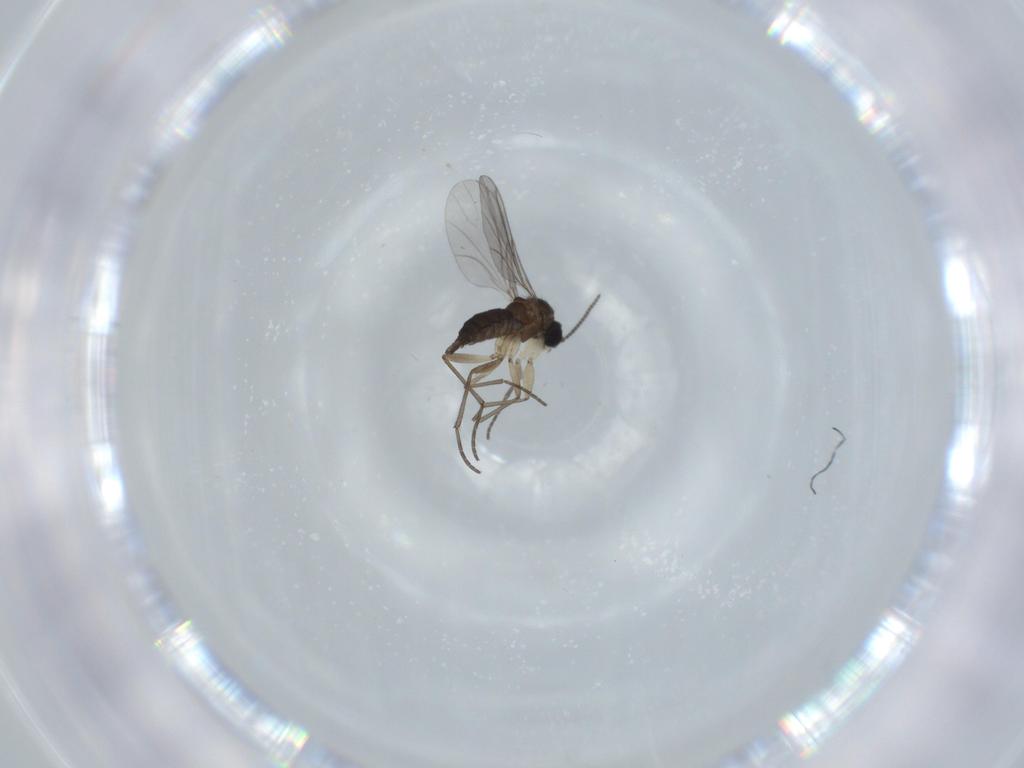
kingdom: Animalia
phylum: Arthropoda
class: Insecta
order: Diptera
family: Sciaridae
